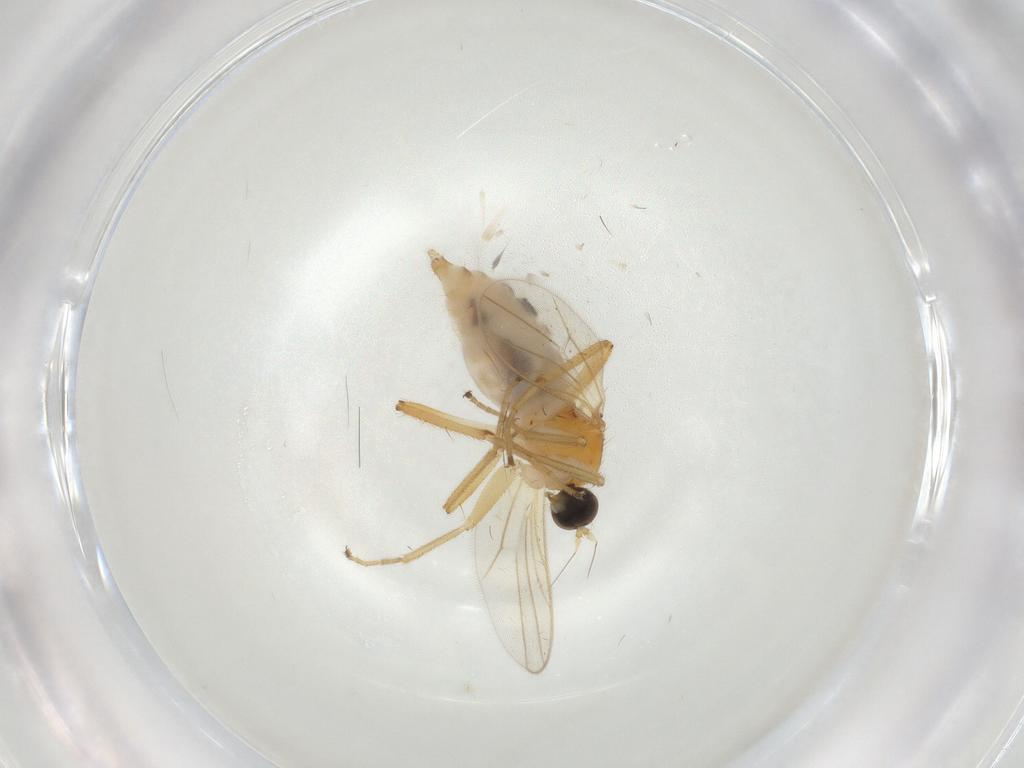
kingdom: Animalia
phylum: Arthropoda
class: Insecta
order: Diptera
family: Hybotidae
